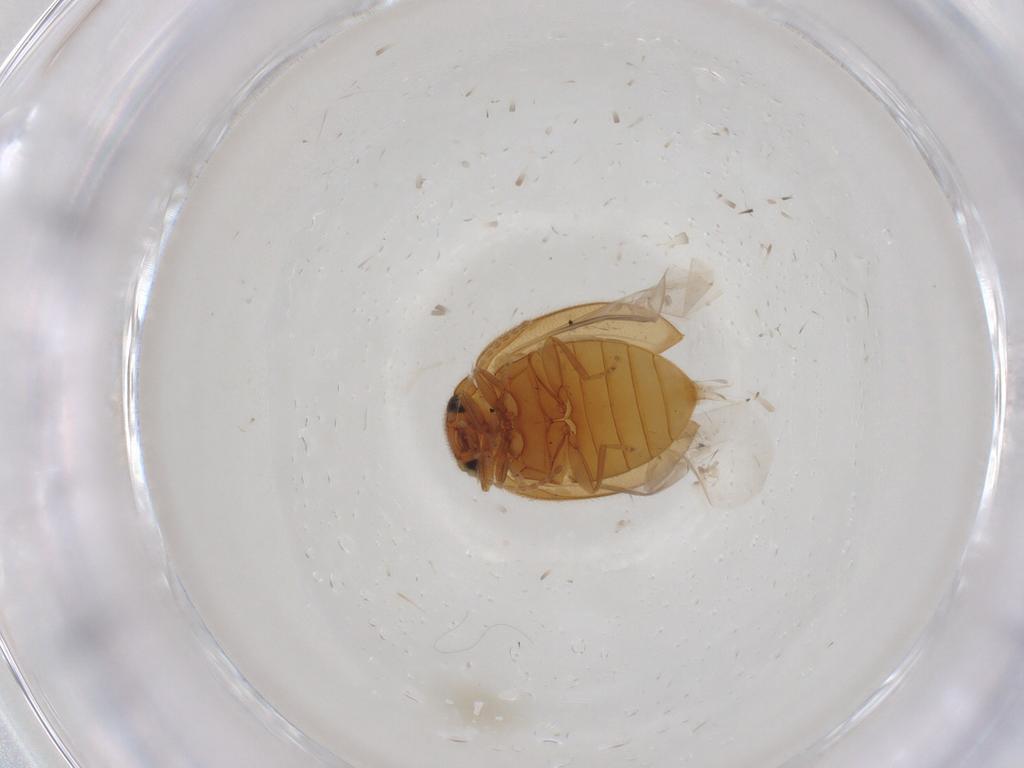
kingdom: Animalia
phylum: Arthropoda
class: Insecta
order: Coleoptera
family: Scirtidae
